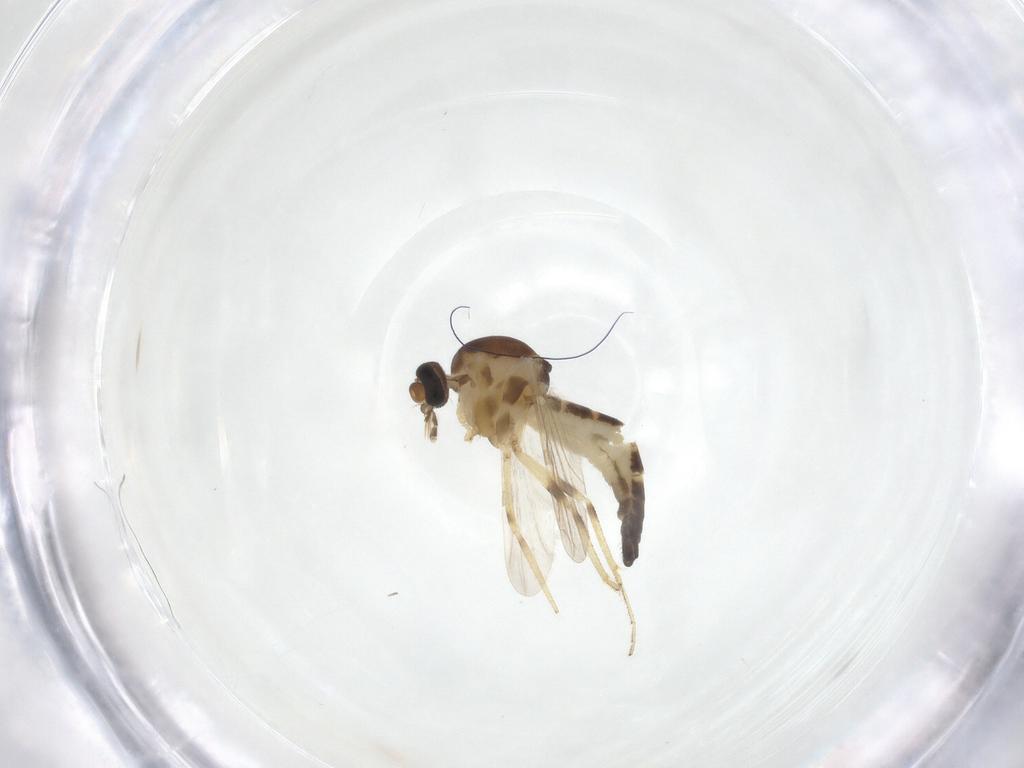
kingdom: Animalia
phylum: Arthropoda
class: Insecta
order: Diptera
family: Ceratopogonidae
